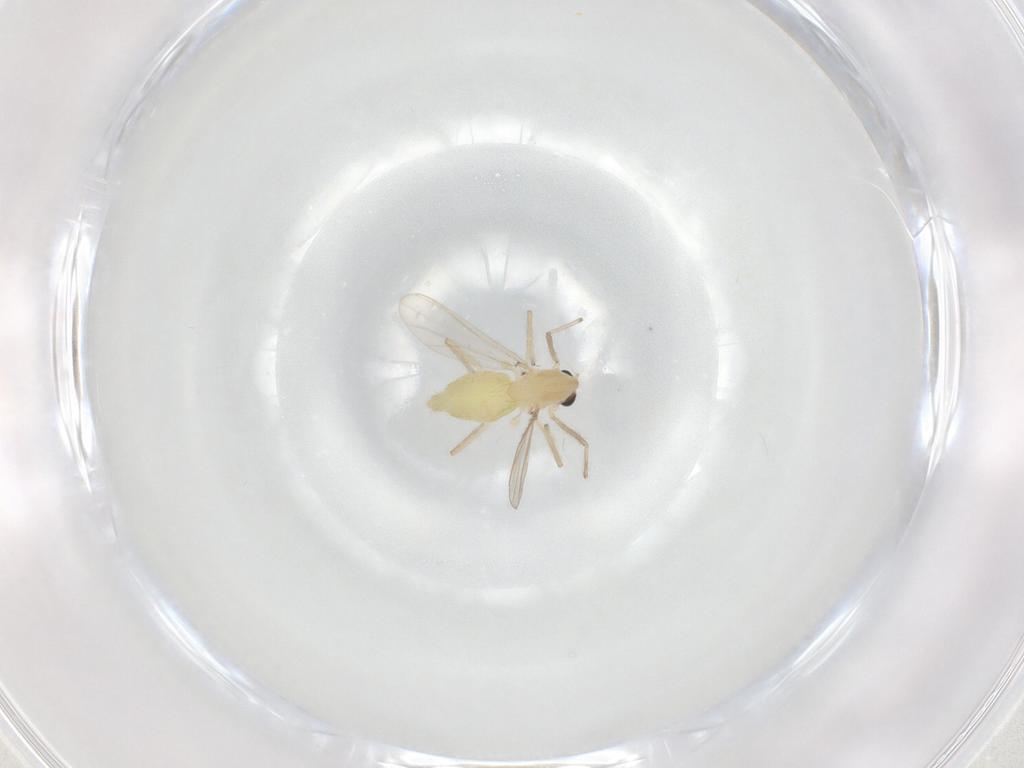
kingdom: Animalia
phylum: Arthropoda
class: Insecta
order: Diptera
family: Chironomidae
